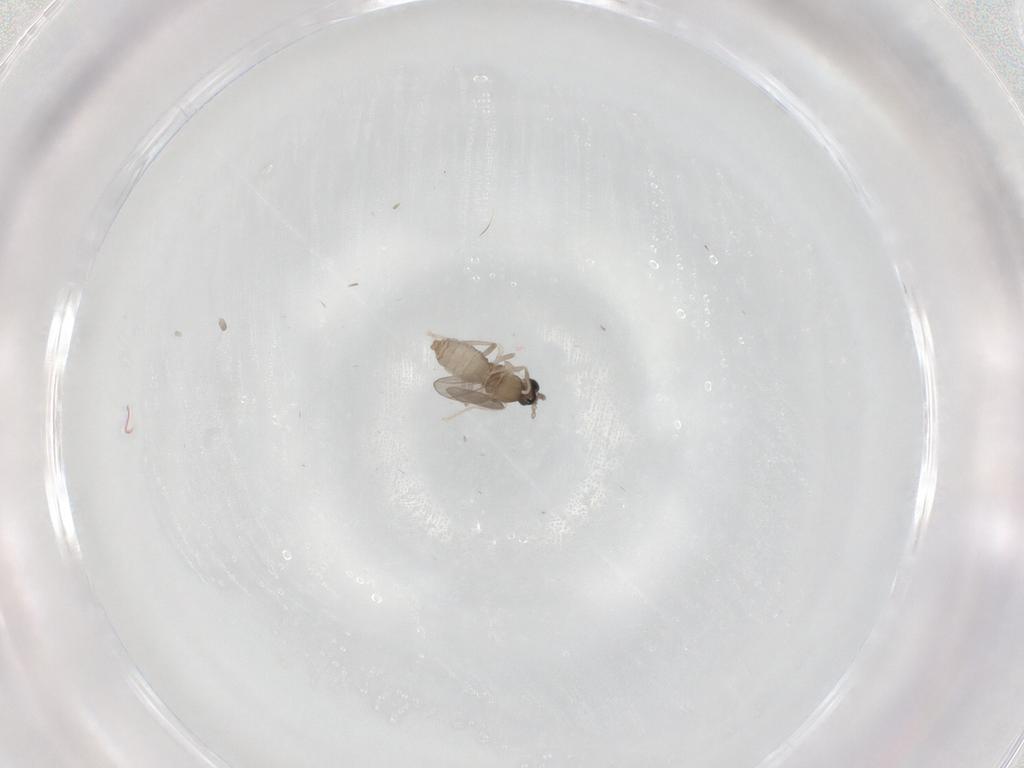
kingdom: Animalia
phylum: Arthropoda
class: Insecta
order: Diptera
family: Cecidomyiidae
